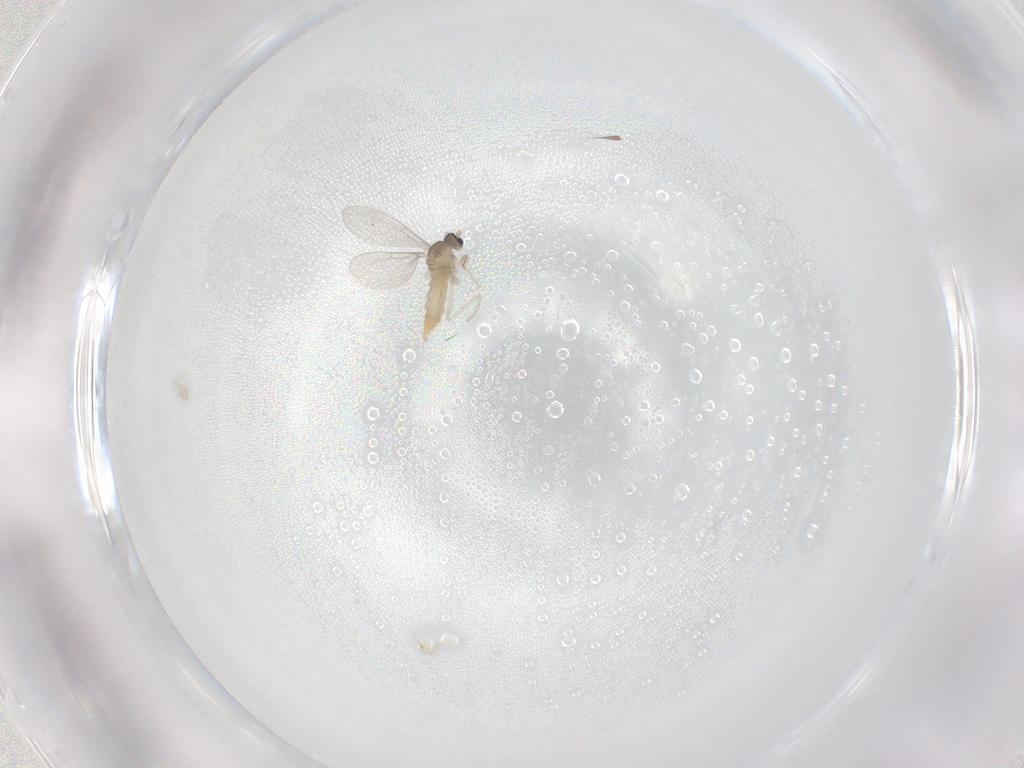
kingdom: Animalia
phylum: Arthropoda
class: Insecta
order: Diptera
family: Cecidomyiidae
